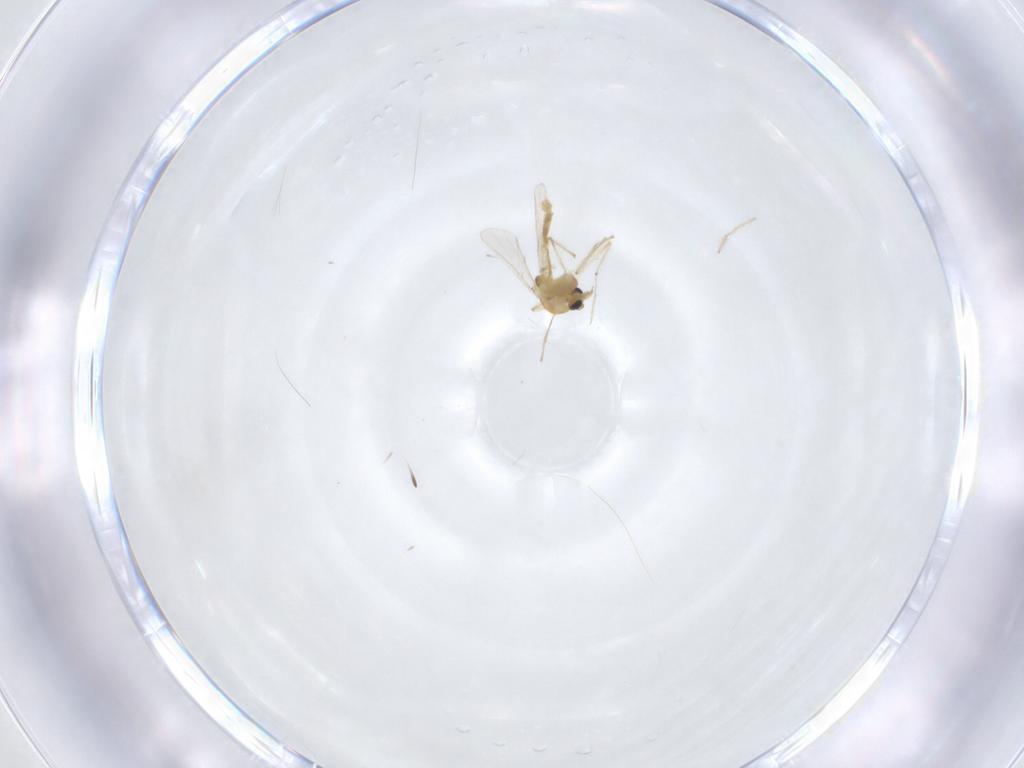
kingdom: Animalia
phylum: Arthropoda
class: Insecta
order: Diptera
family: Chironomidae
